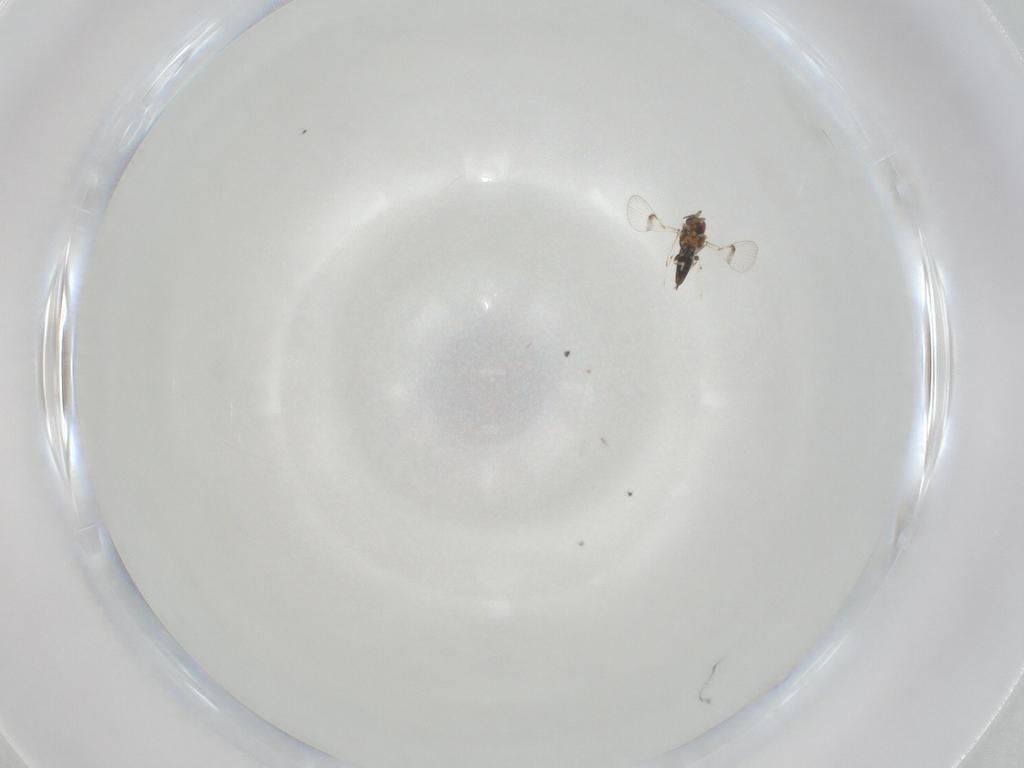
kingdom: Animalia
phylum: Arthropoda
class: Insecta
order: Hymenoptera
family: Trichogrammatidae
